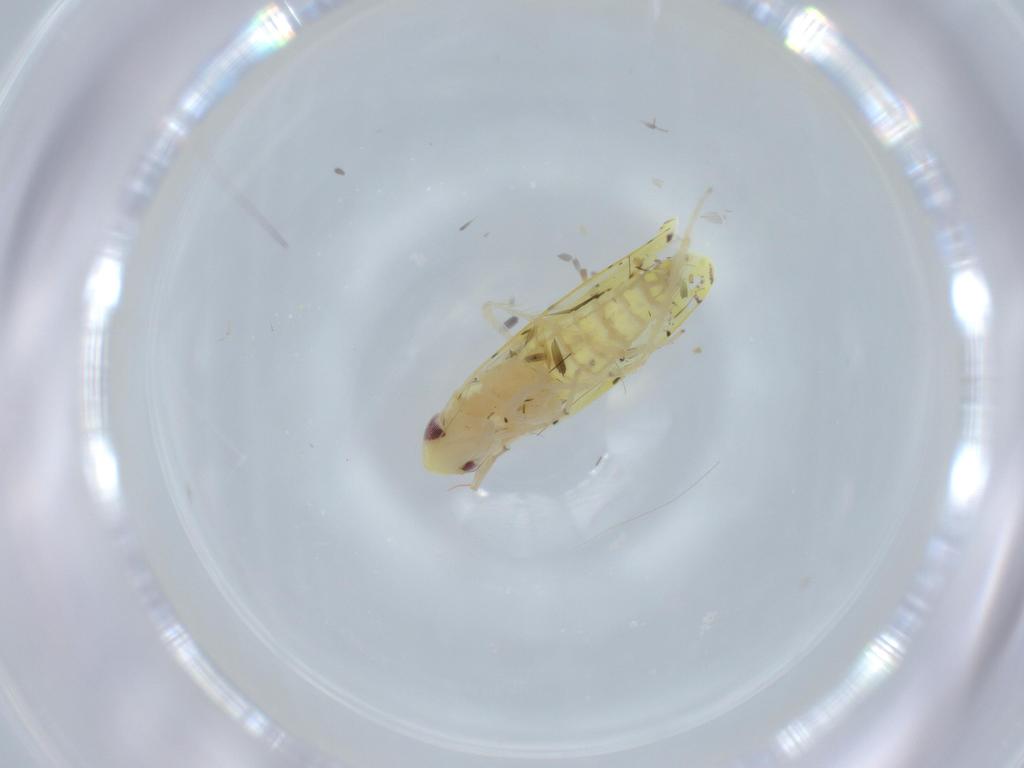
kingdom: Animalia
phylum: Arthropoda
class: Insecta
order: Hemiptera
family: Cicadellidae
